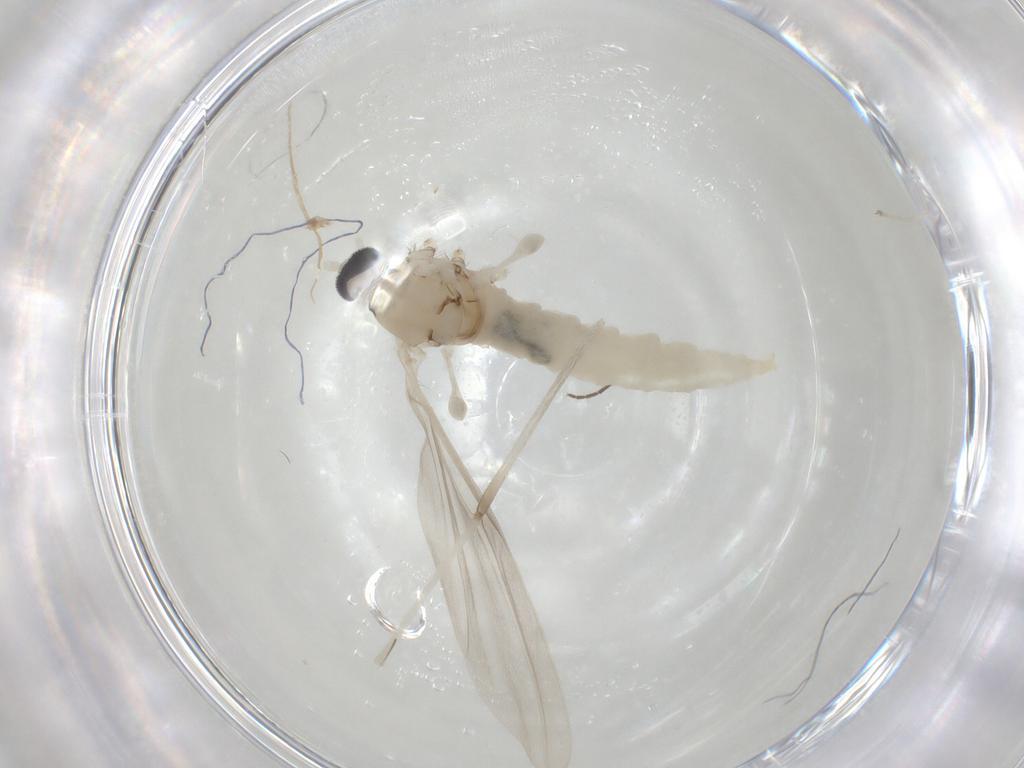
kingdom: Animalia
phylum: Arthropoda
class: Insecta
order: Diptera
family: Cecidomyiidae
